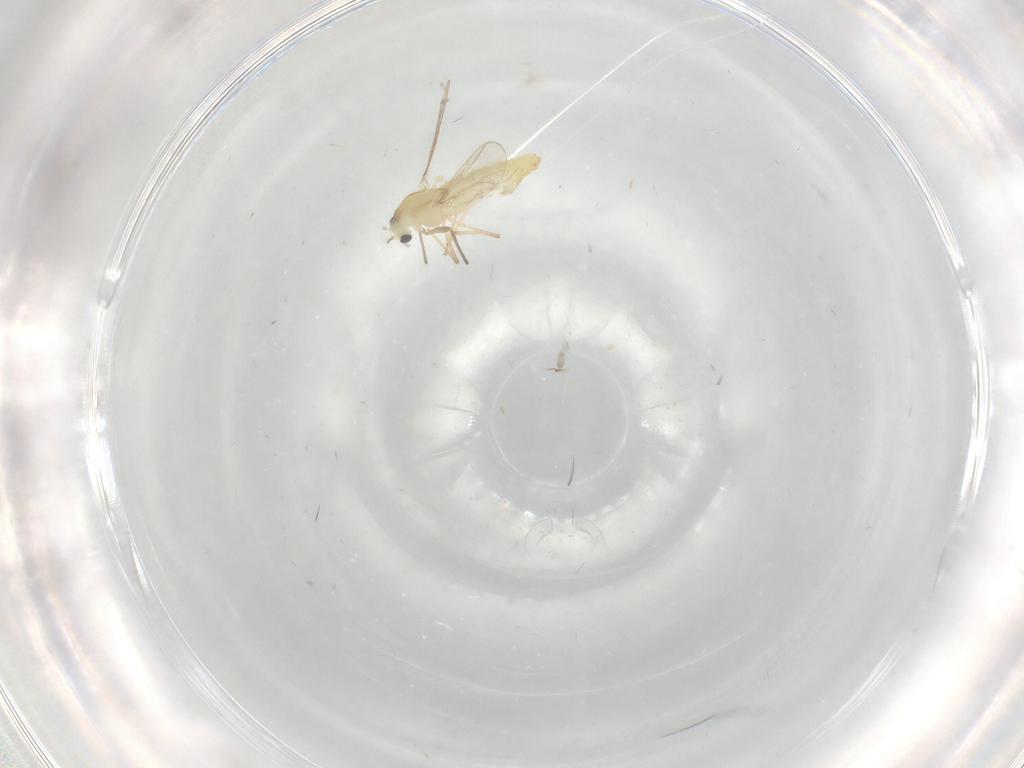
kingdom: Animalia
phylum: Arthropoda
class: Insecta
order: Diptera
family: Chironomidae
